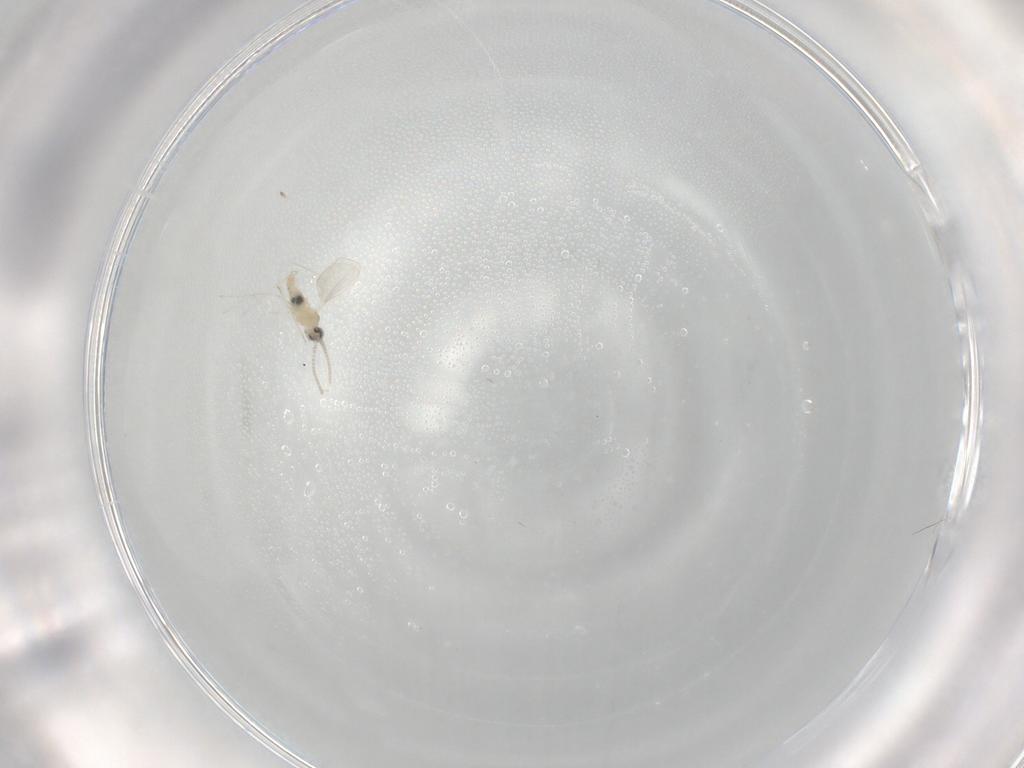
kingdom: Animalia
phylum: Arthropoda
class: Insecta
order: Diptera
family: Cecidomyiidae
